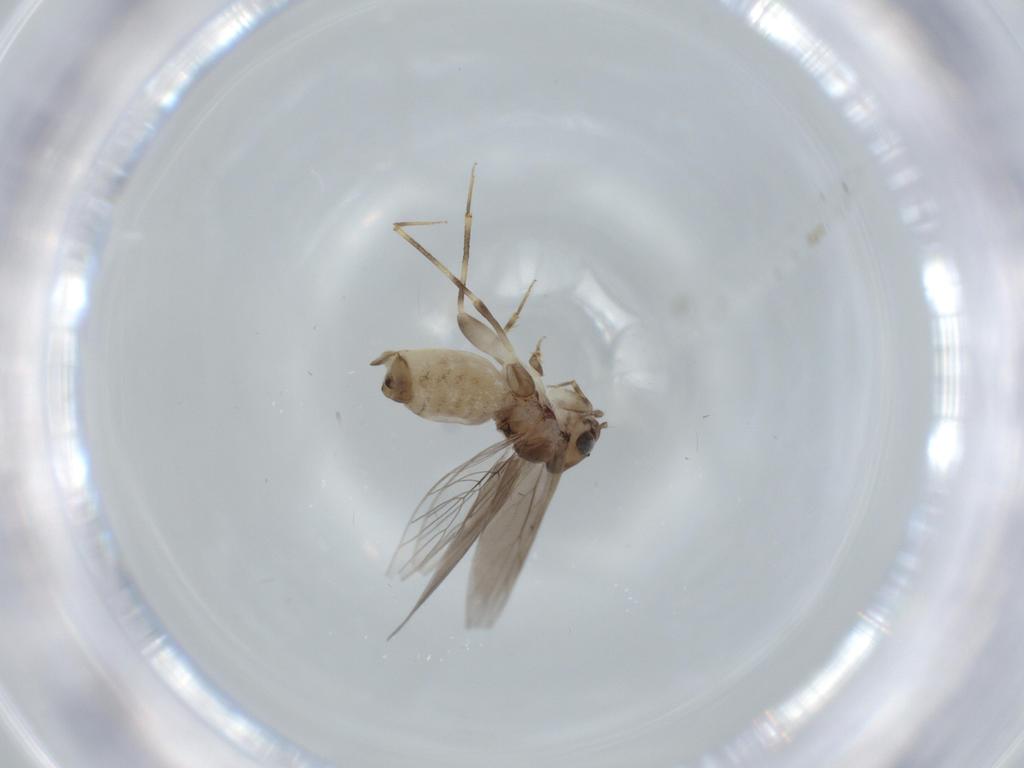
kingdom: Animalia
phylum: Arthropoda
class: Insecta
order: Psocodea
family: Lepidopsocidae
